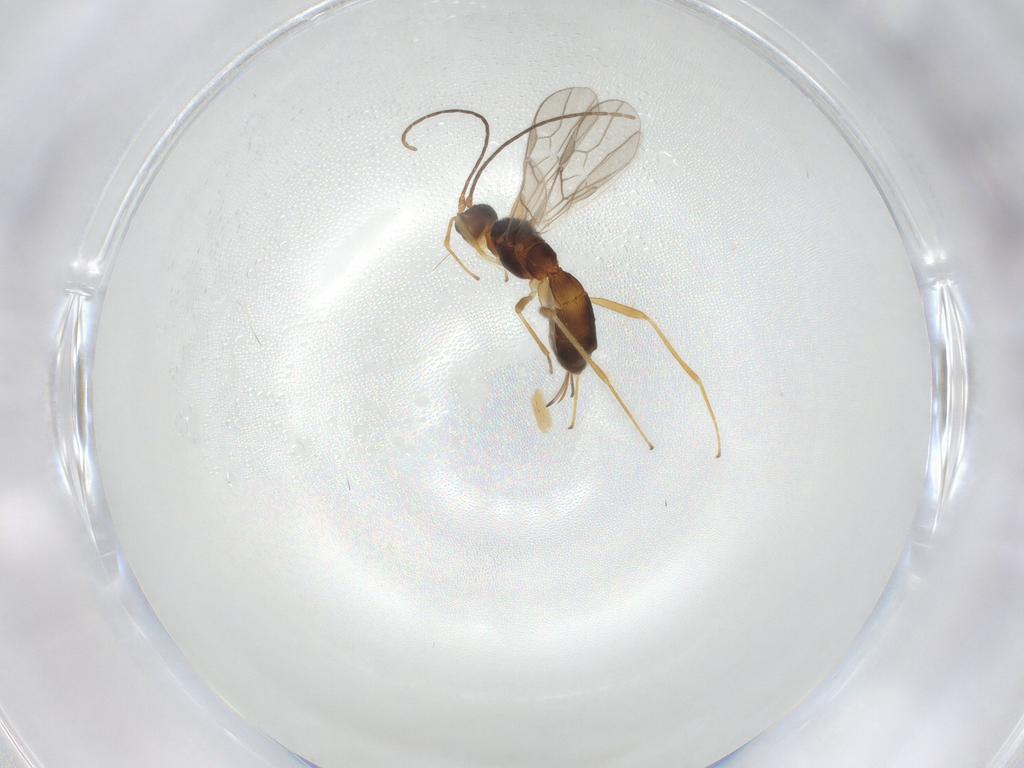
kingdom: Animalia
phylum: Arthropoda
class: Insecta
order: Hymenoptera
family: Braconidae
